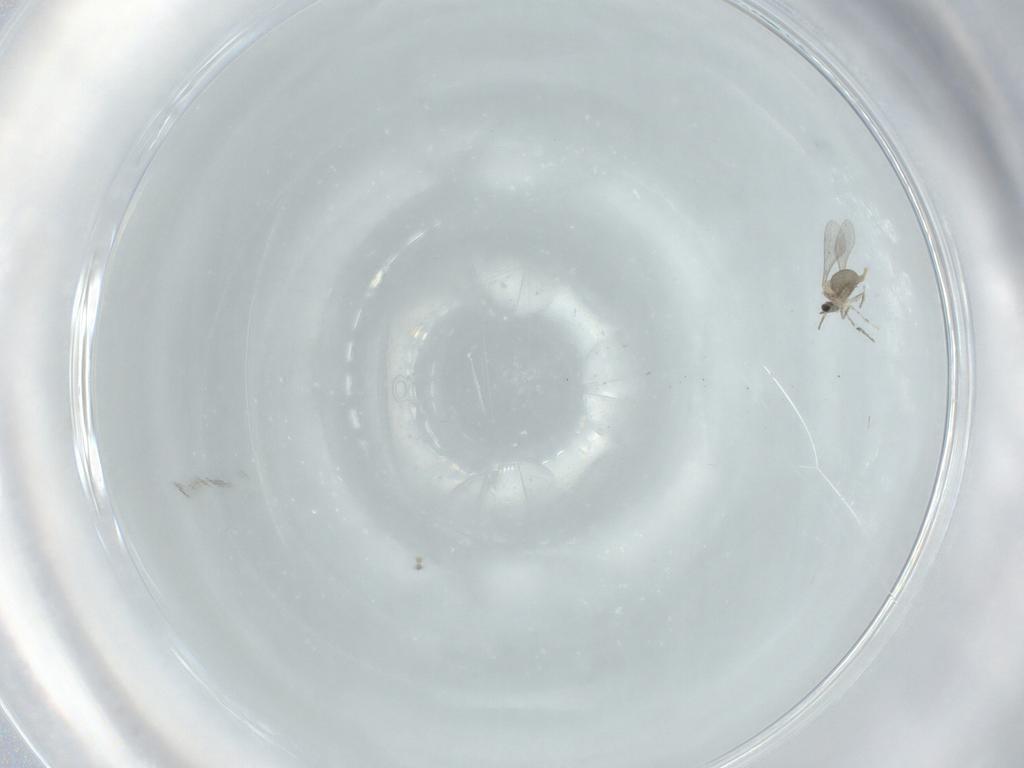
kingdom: Animalia
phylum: Arthropoda
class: Insecta
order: Diptera
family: Cecidomyiidae
